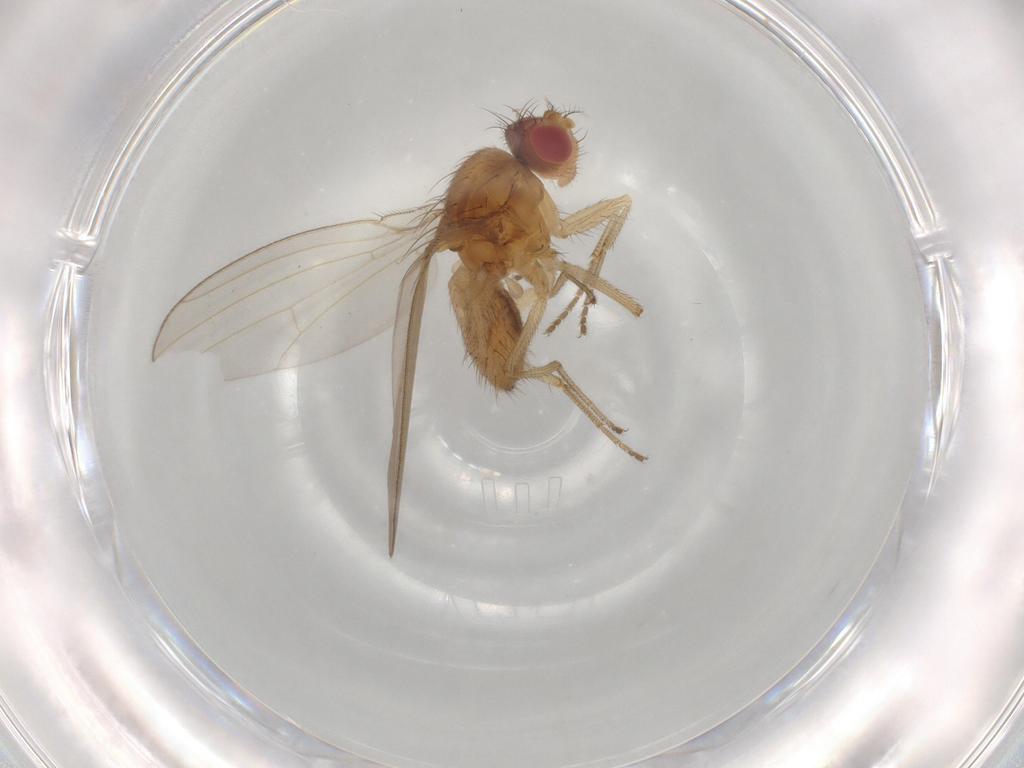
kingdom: Animalia
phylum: Arthropoda
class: Insecta
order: Diptera
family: Drosophilidae
